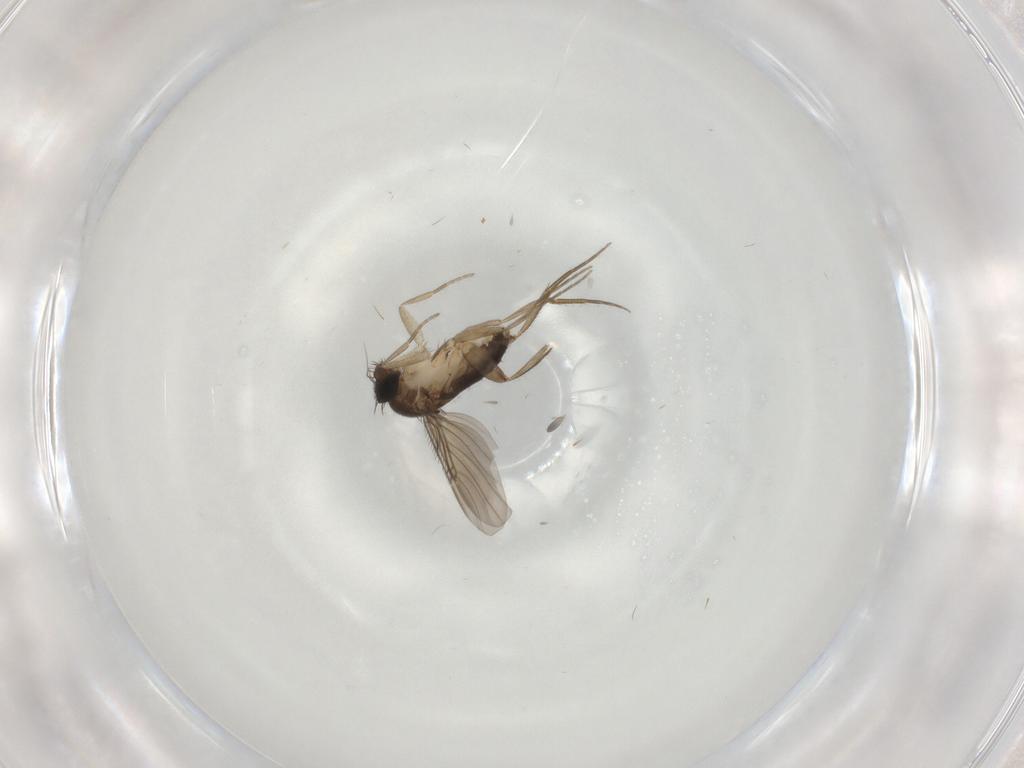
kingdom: Animalia
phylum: Arthropoda
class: Insecta
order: Diptera
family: Phoridae
